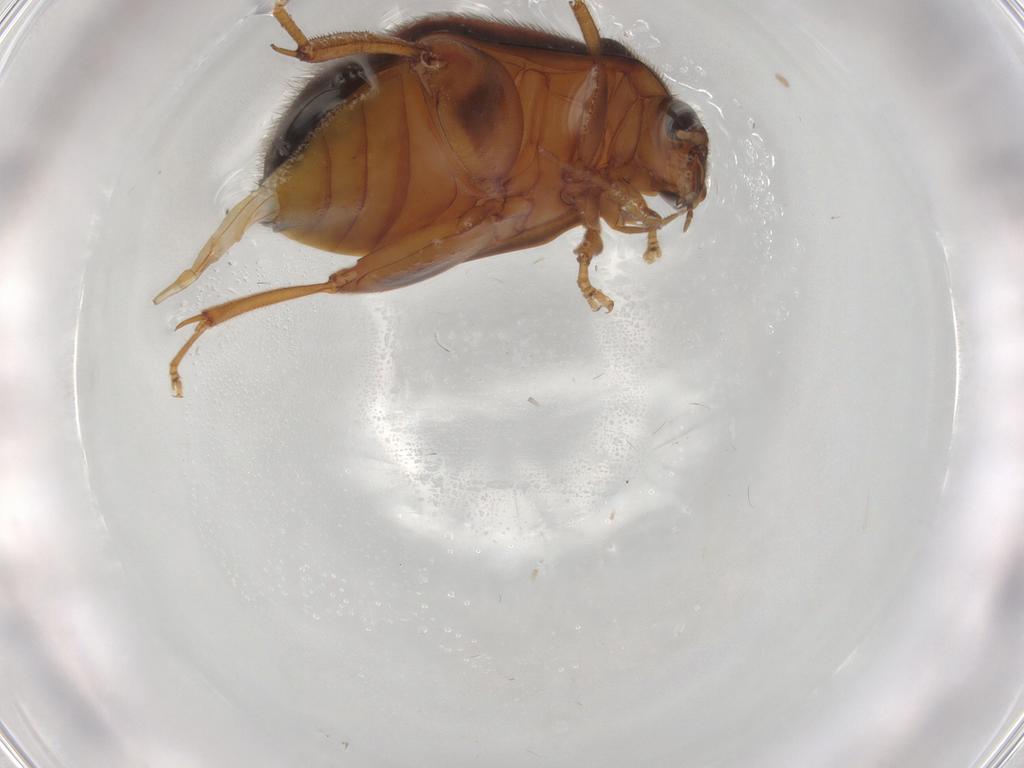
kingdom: Animalia
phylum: Arthropoda
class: Insecta
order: Coleoptera
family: Scirtidae
